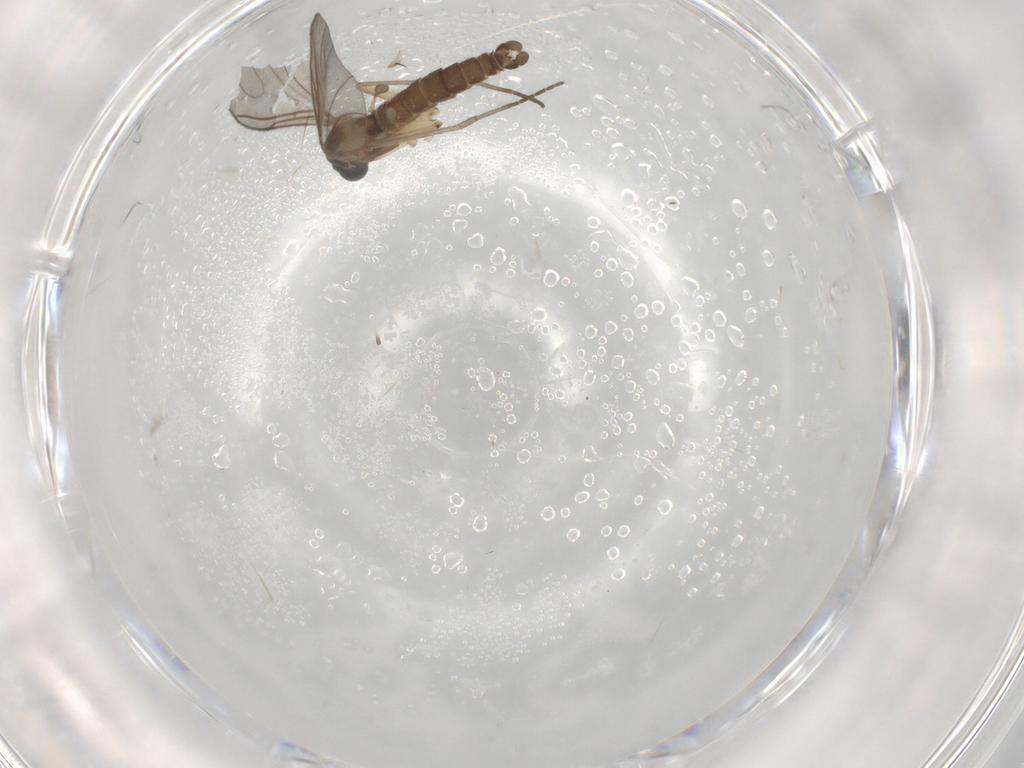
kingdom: Animalia
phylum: Arthropoda
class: Insecta
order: Diptera
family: Sciaridae
